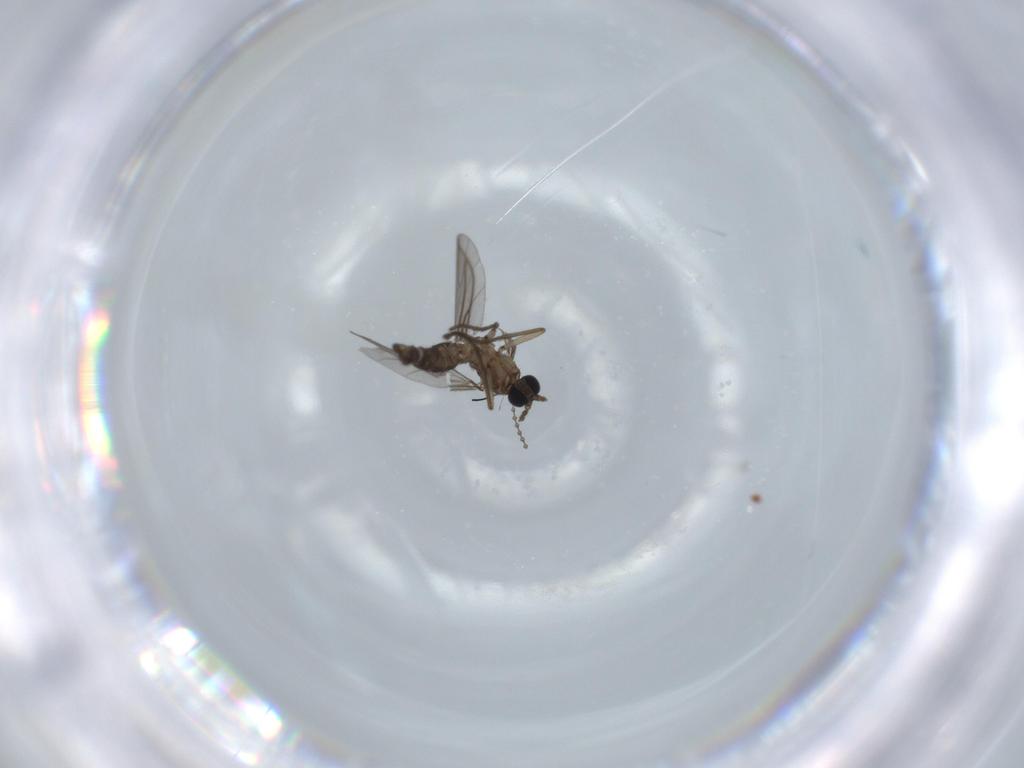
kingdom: Animalia
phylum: Arthropoda
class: Insecta
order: Diptera
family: Sciaridae
